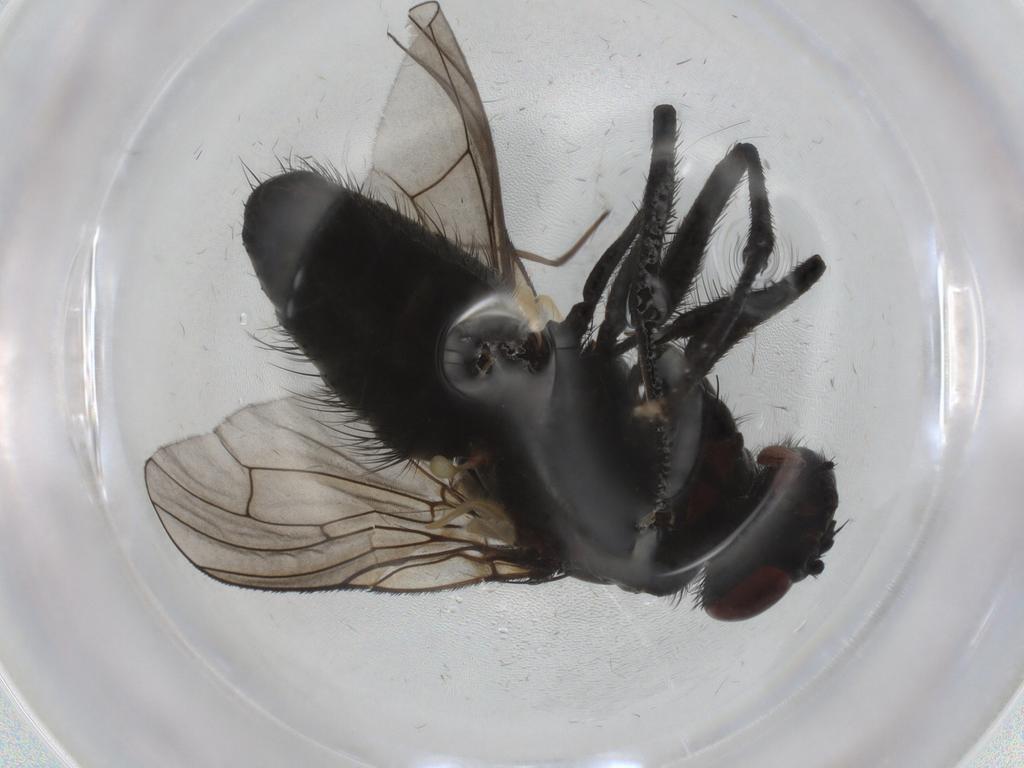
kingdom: Animalia
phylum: Arthropoda
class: Insecta
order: Diptera
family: Muscidae
